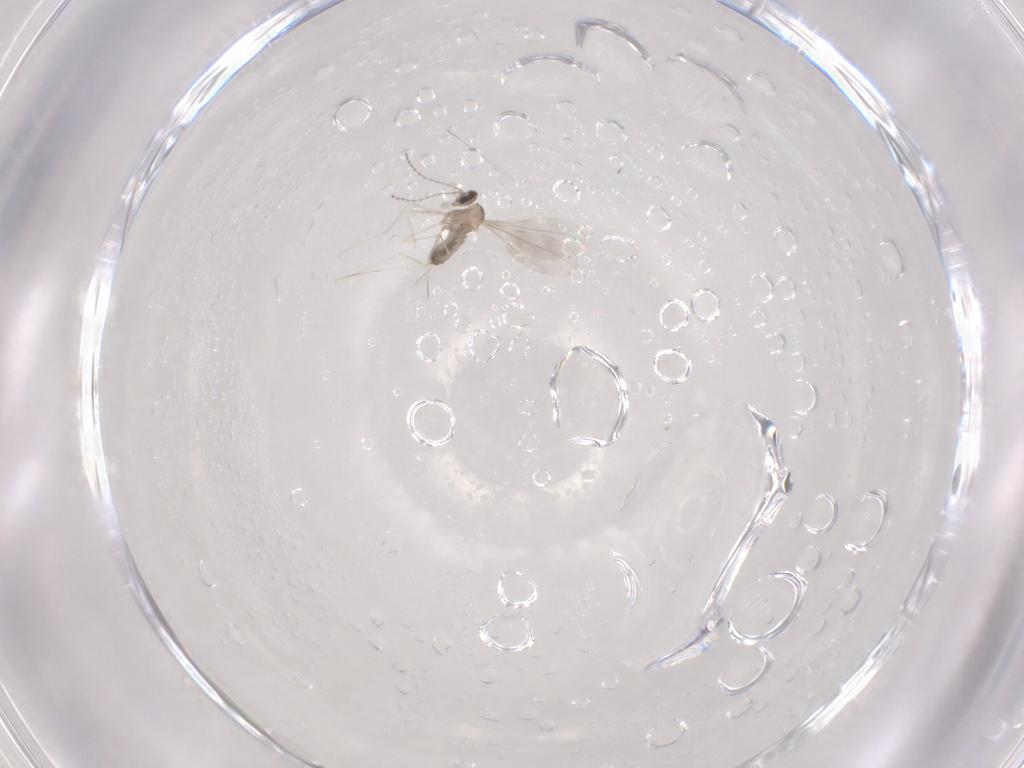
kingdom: Animalia
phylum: Arthropoda
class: Insecta
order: Diptera
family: Cecidomyiidae
